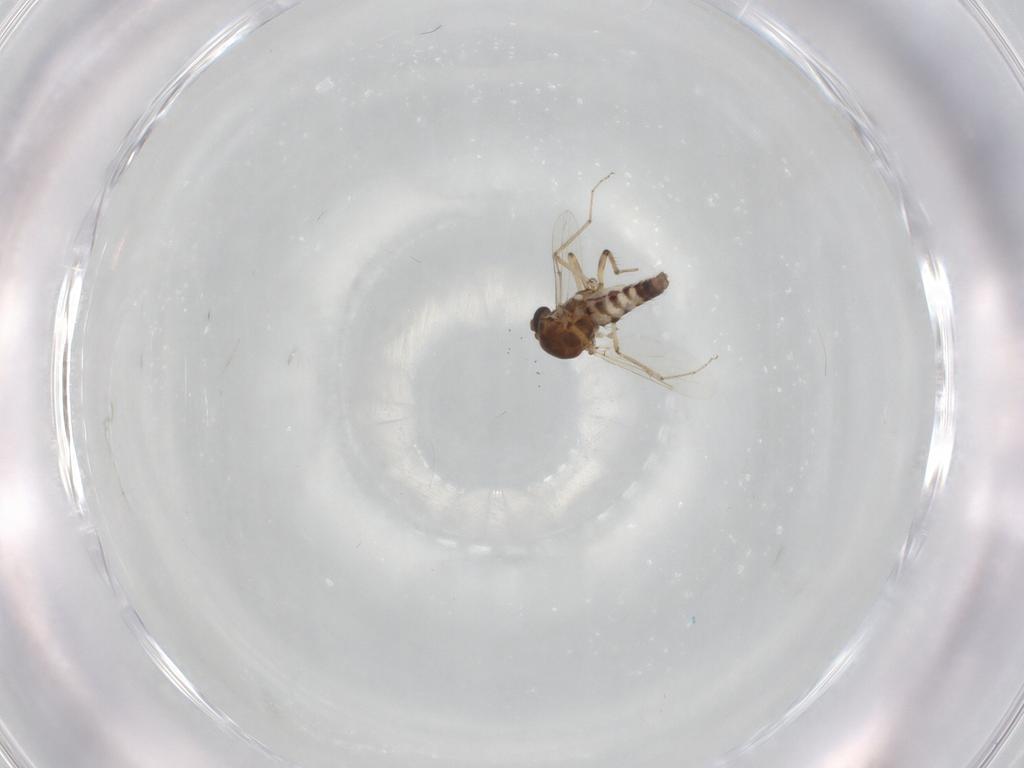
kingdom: Animalia
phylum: Arthropoda
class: Insecta
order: Diptera
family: Ceratopogonidae
